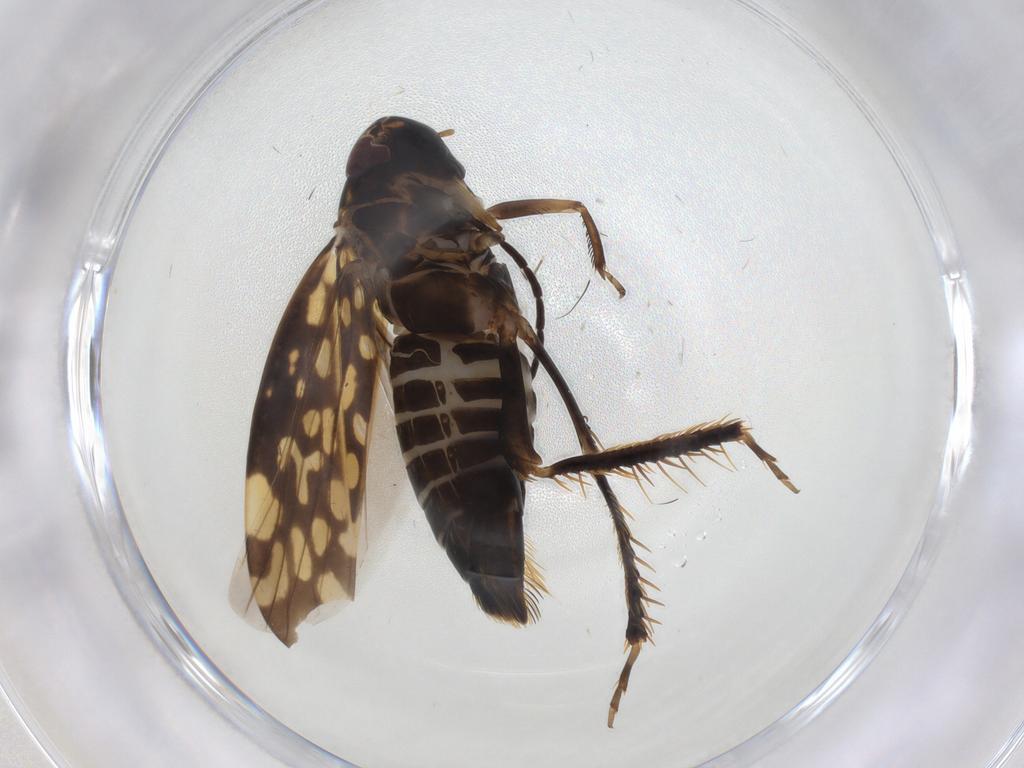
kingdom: Animalia
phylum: Arthropoda
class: Insecta
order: Hemiptera
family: Cicadellidae
